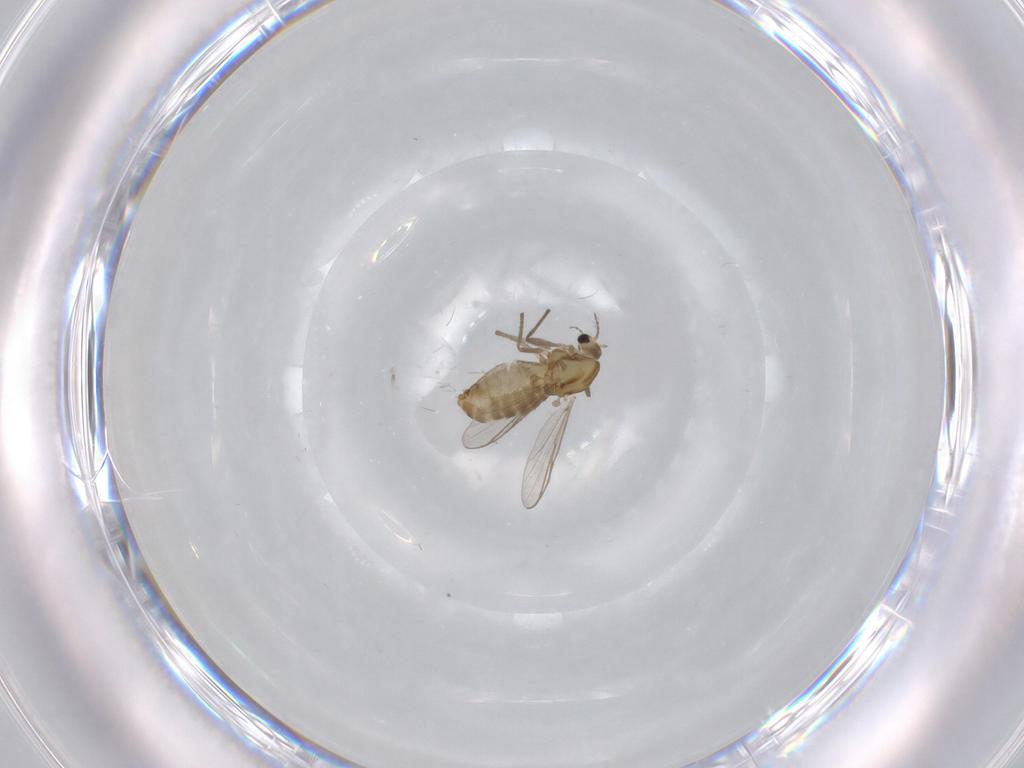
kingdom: Animalia
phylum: Arthropoda
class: Insecta
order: Diptera
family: Chironomidae
